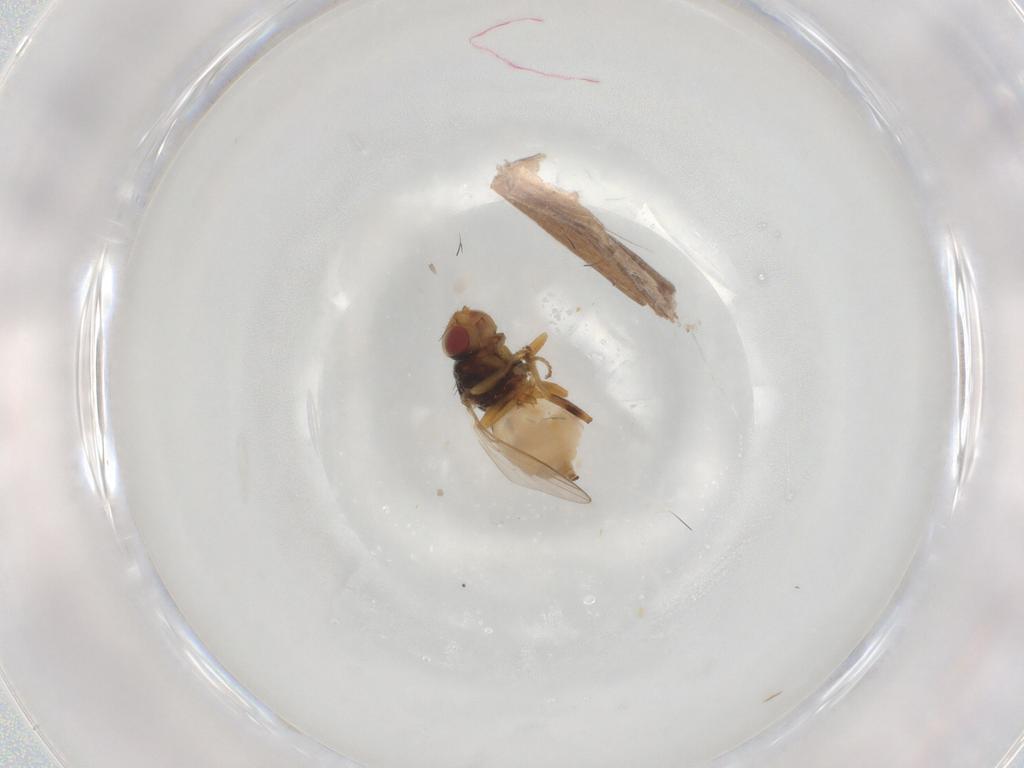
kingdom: Animalia
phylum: Arthropoda
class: Insecta
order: Diptera
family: Chloropidae
